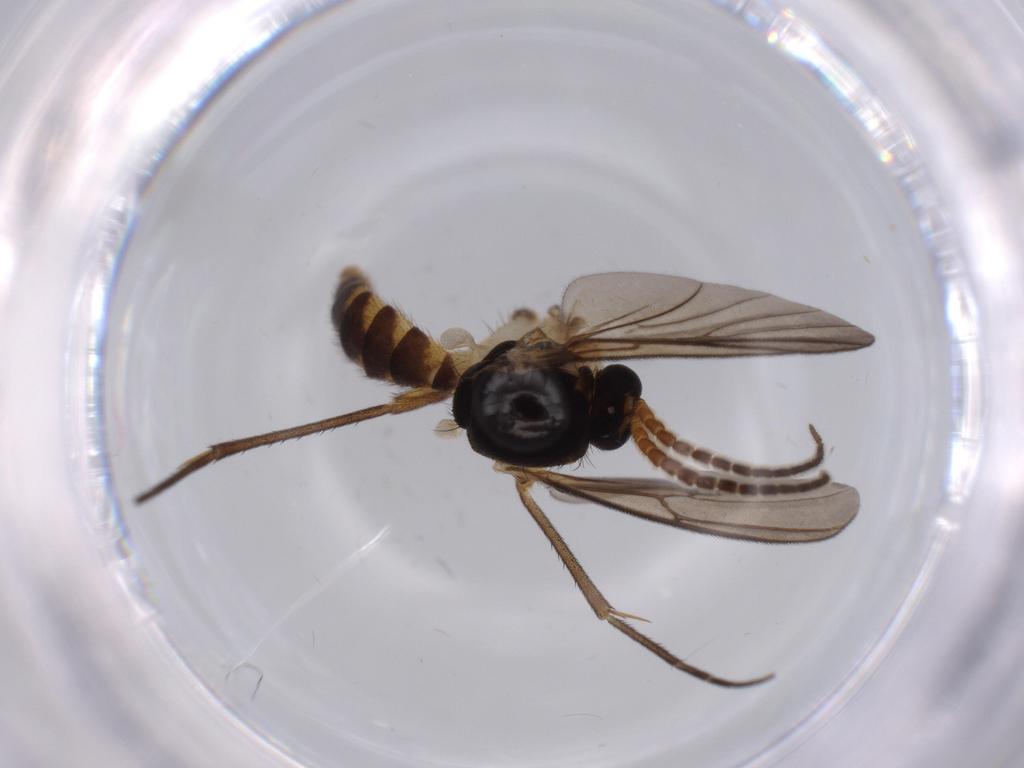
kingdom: Animalia
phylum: Arthropoda
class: Insecta
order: Diptera
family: Chironomidae
